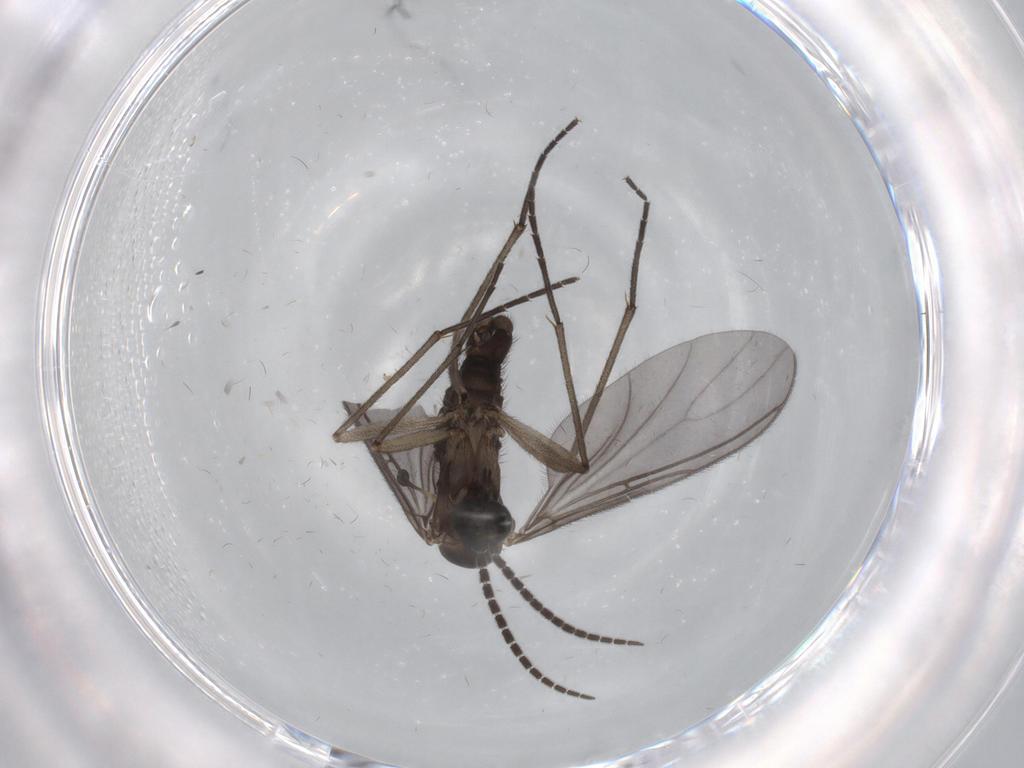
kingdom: Animalia
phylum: Arthropoda
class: Insecta
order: Diptera
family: Sciaridae
